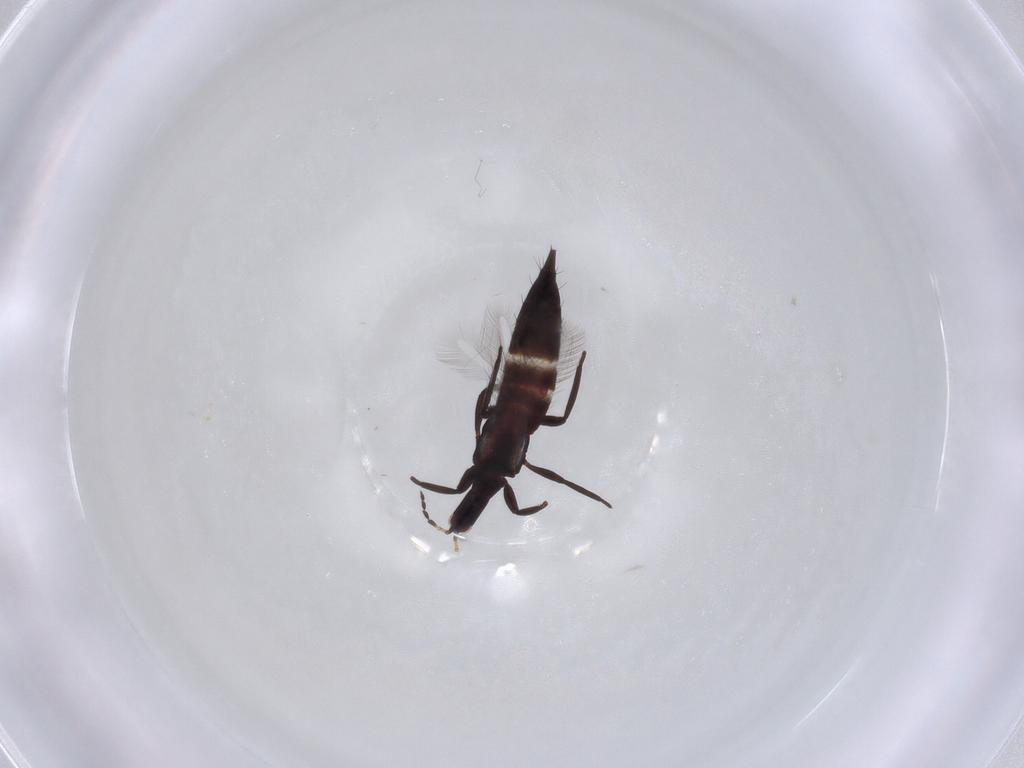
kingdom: Animalia
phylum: Arthropoda
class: Insecta
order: Thysanoptera
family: Phlaeothripidae
